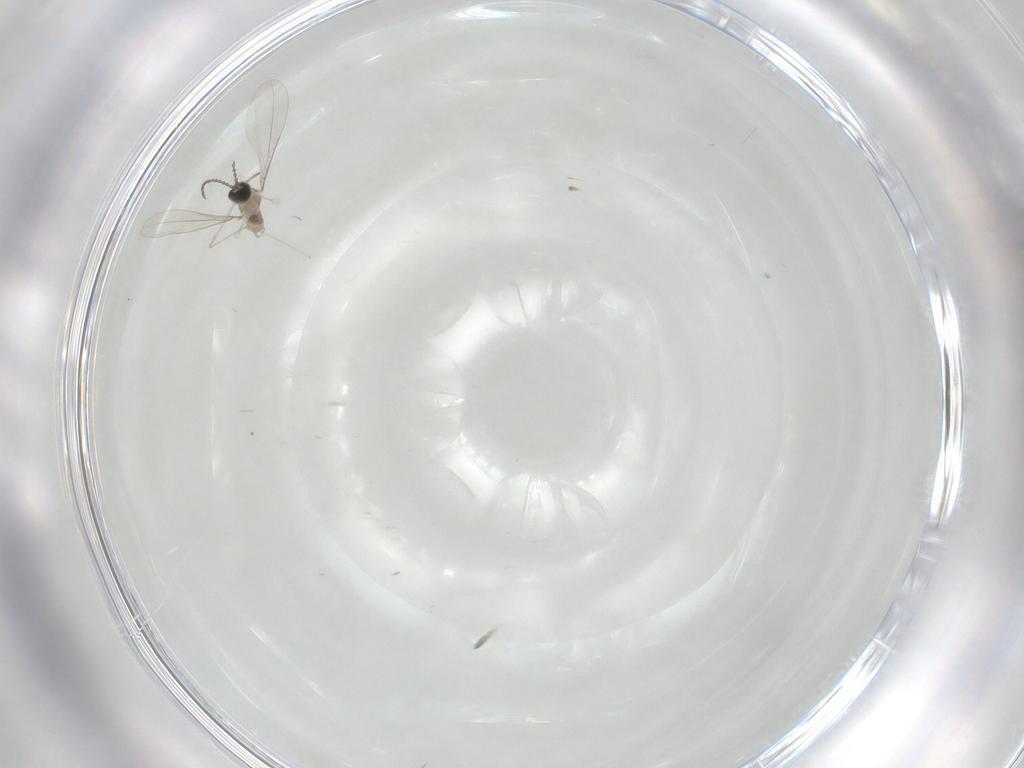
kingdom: Animalia
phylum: Arthropoda
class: Insecta
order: Diptera
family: Cecidomyiidae
